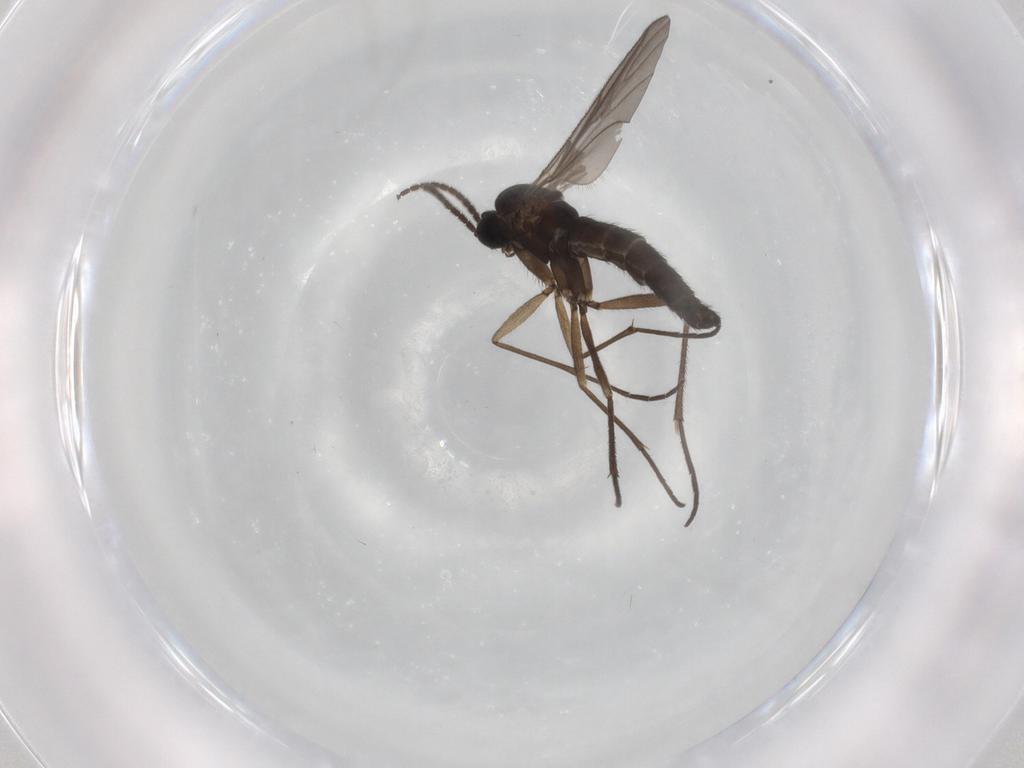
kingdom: Animalia
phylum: Arthropoda
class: Insecta
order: Diptera
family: Sciaridae
